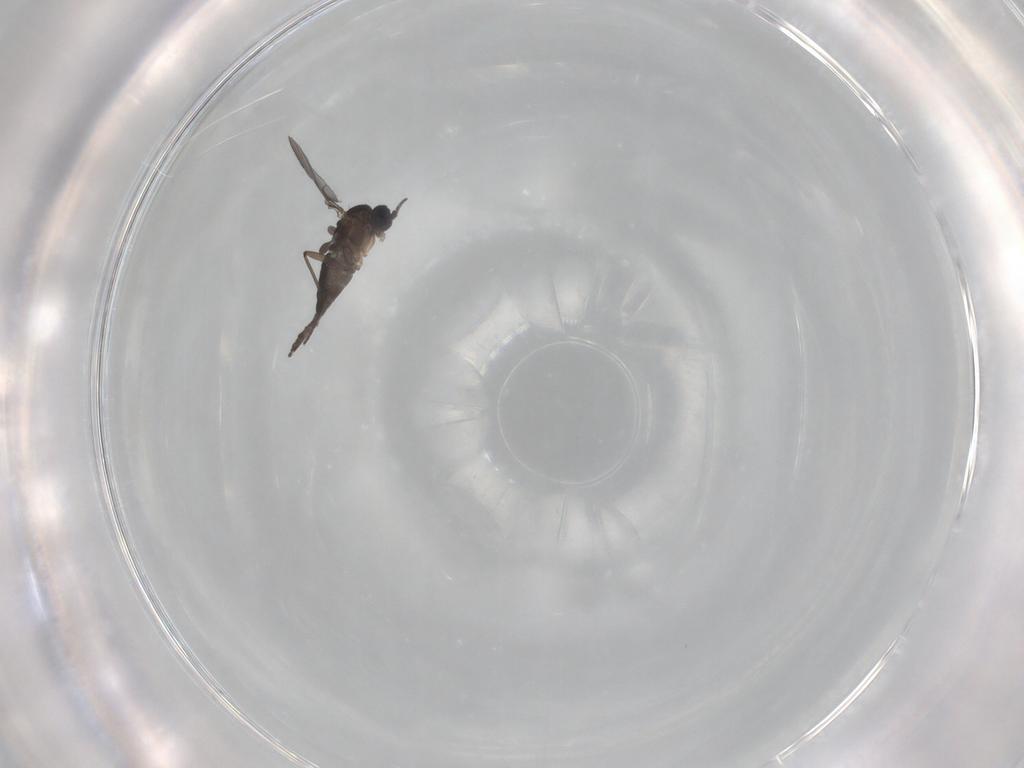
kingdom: Animalia
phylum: Arthropoda
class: Insecta
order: Diptera
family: Sciaridae
